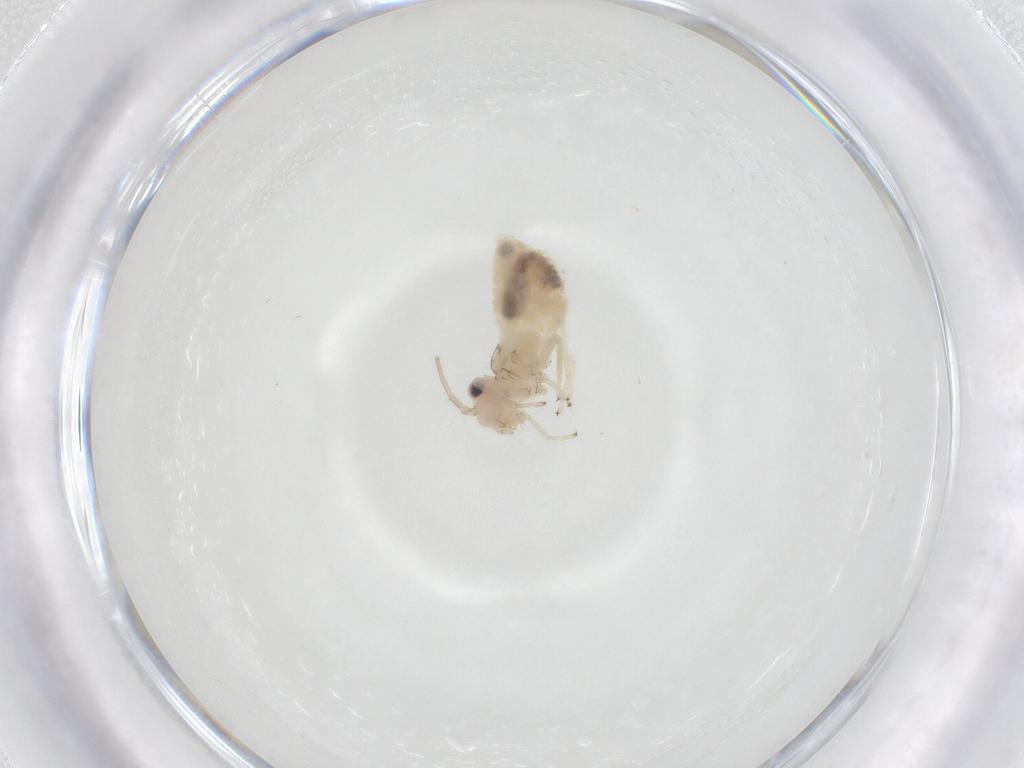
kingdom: Animalia
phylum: Arthropoda
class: Insecta
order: Psocodea
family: Caeciliusidae
